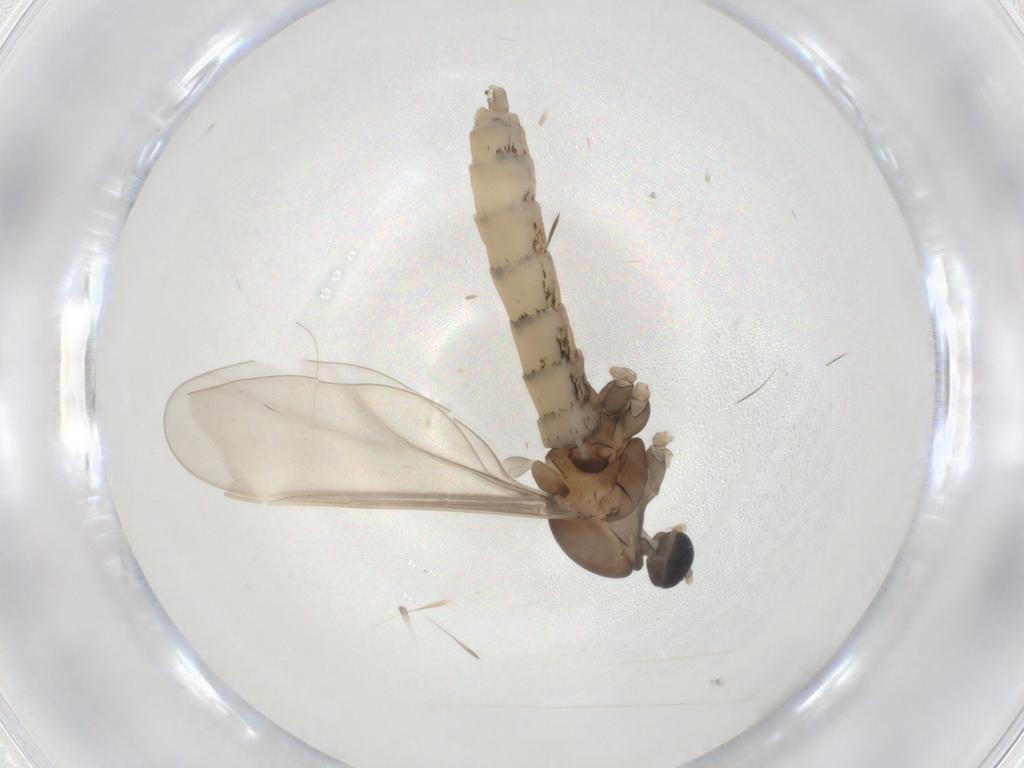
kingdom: Animalia
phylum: Arthropoda
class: Insecta
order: Diptera
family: Cecidomyiidae
